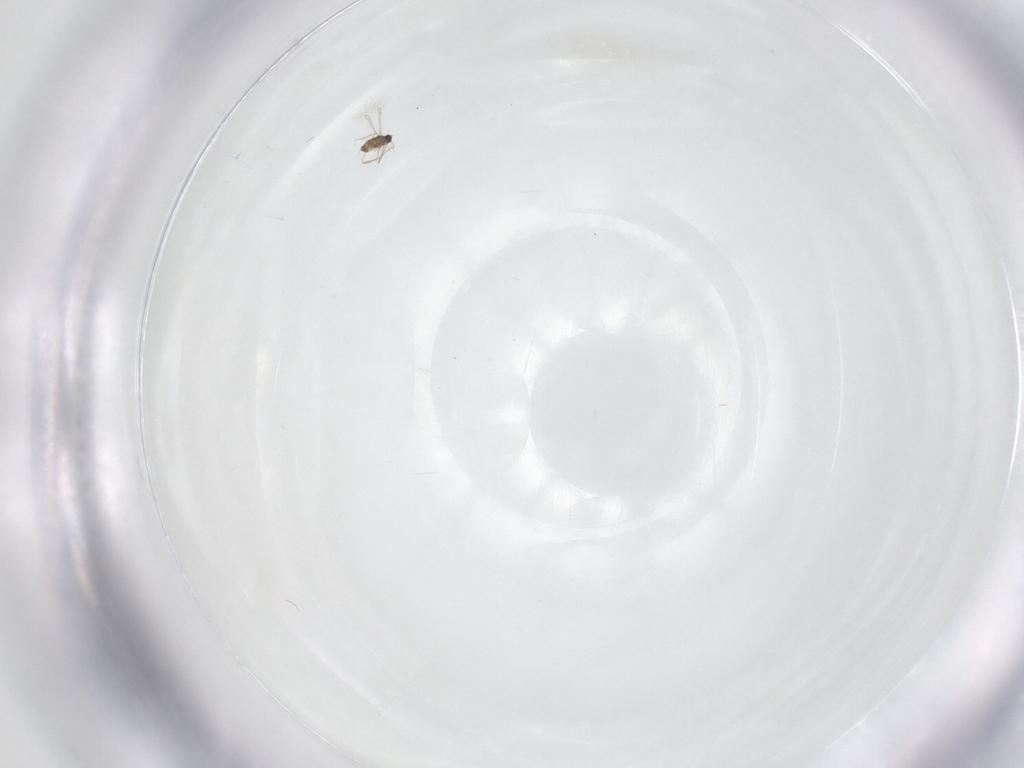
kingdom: Animalia
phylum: Arthropoda
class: Insecta
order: Hymenoptera
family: Mymaridae
